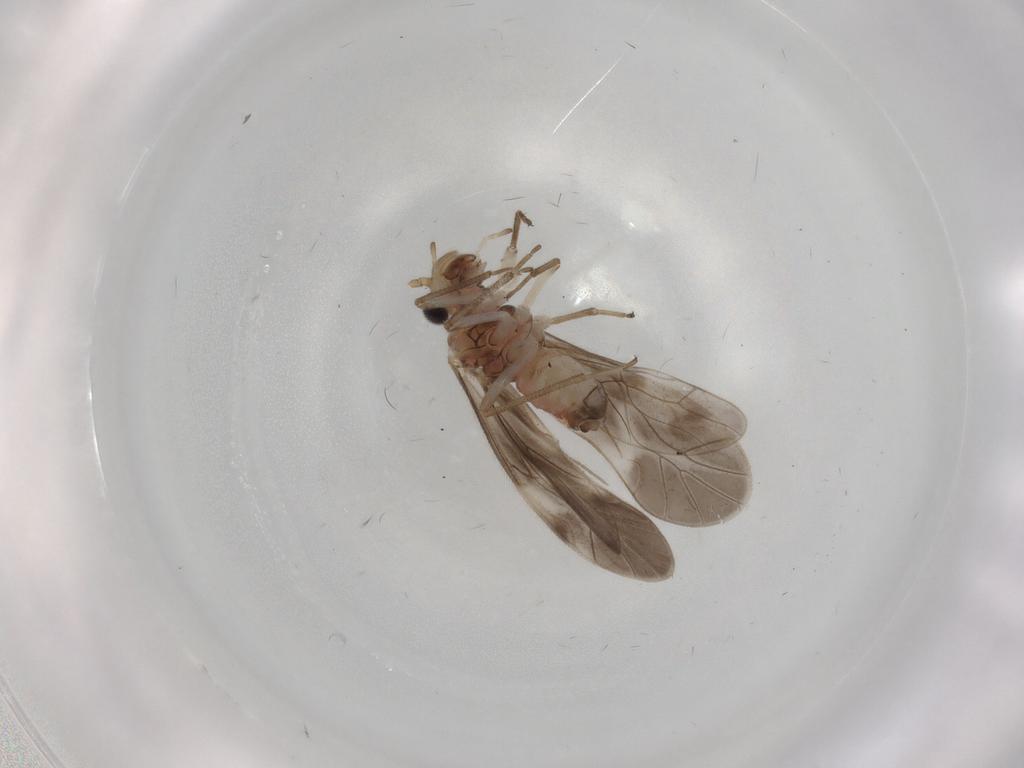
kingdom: Animalia
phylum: Arthropoda
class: Insecta
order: Psocodea
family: Caeciliusidae
